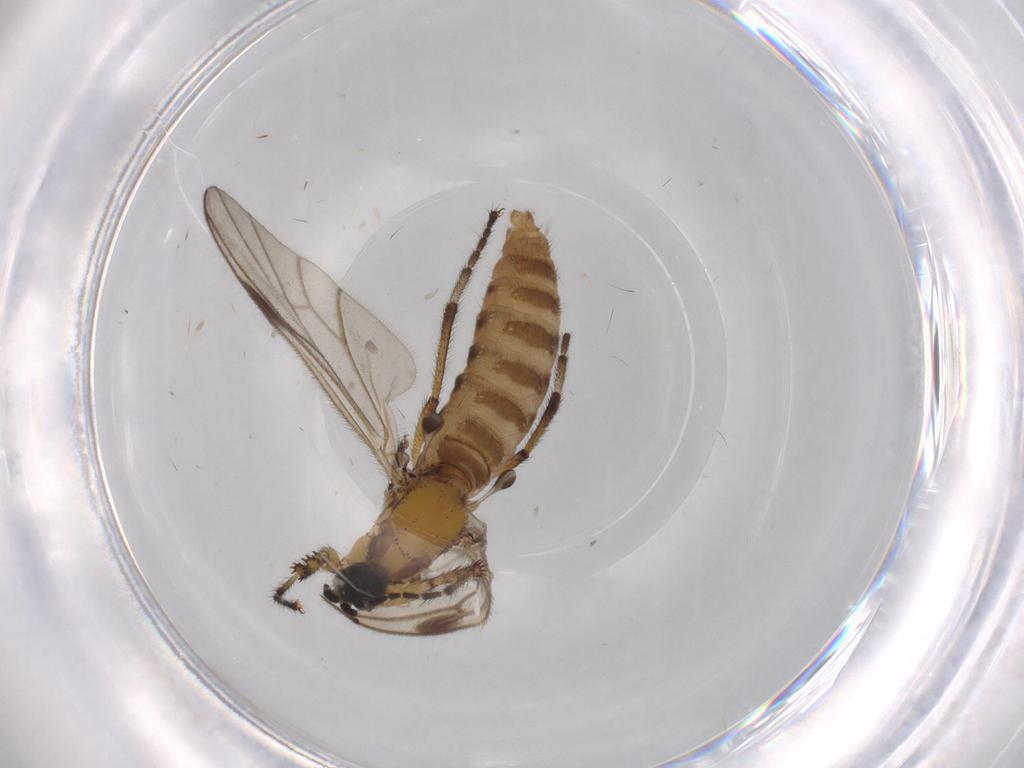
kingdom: Animalia
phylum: Arthropoda
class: Insecta
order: Diptera
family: Bibionidae
